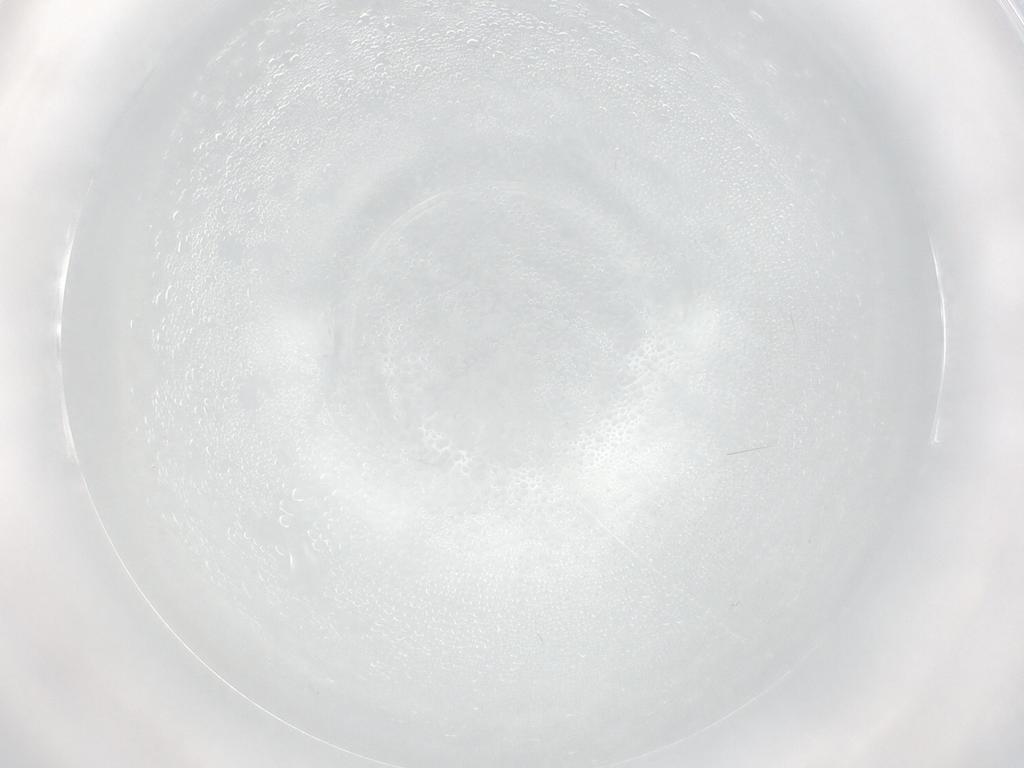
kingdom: Animalia
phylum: Arthropoda
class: Insecta
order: Hymenoptera
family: Platygastridae
